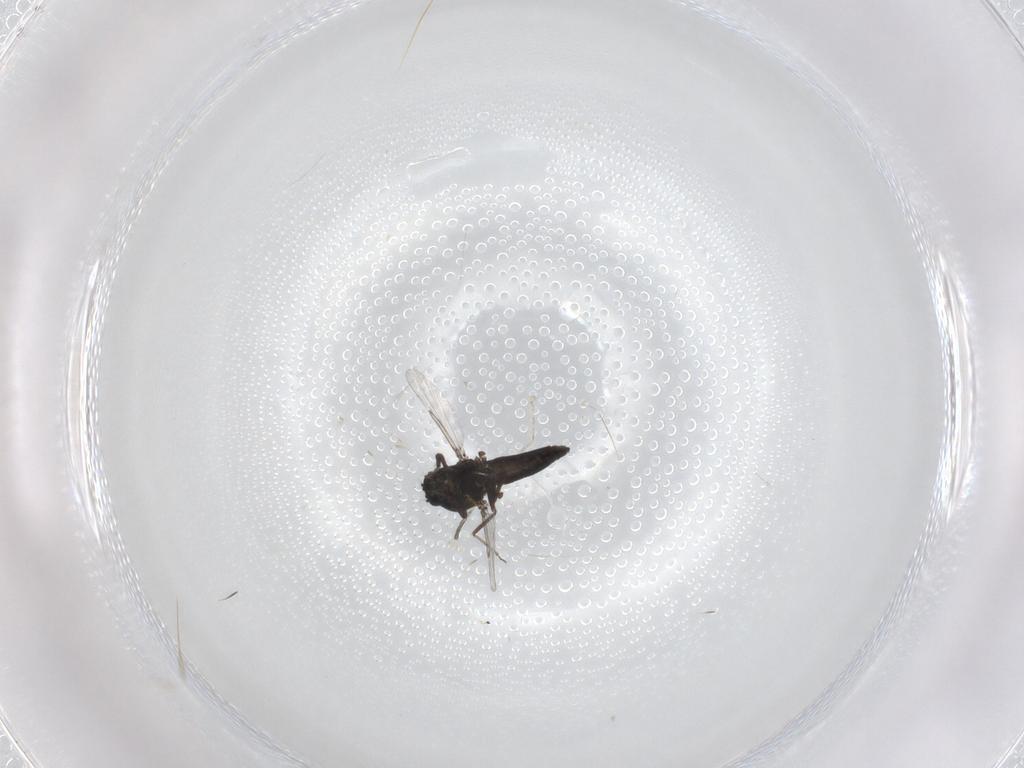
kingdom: Animalia
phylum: Arthropoda
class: Insecta
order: Diptera
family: Ceratopogonidae
